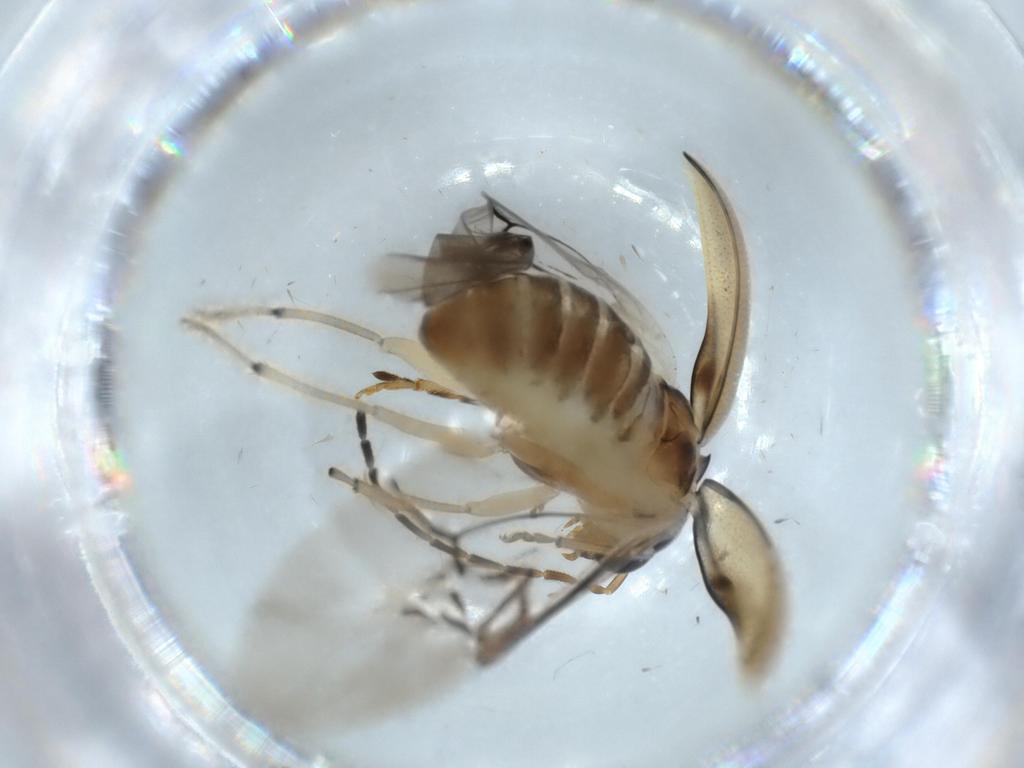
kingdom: Animalia
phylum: Arthropoda
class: Insecta
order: Coleoptera
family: Chrysomelidae
